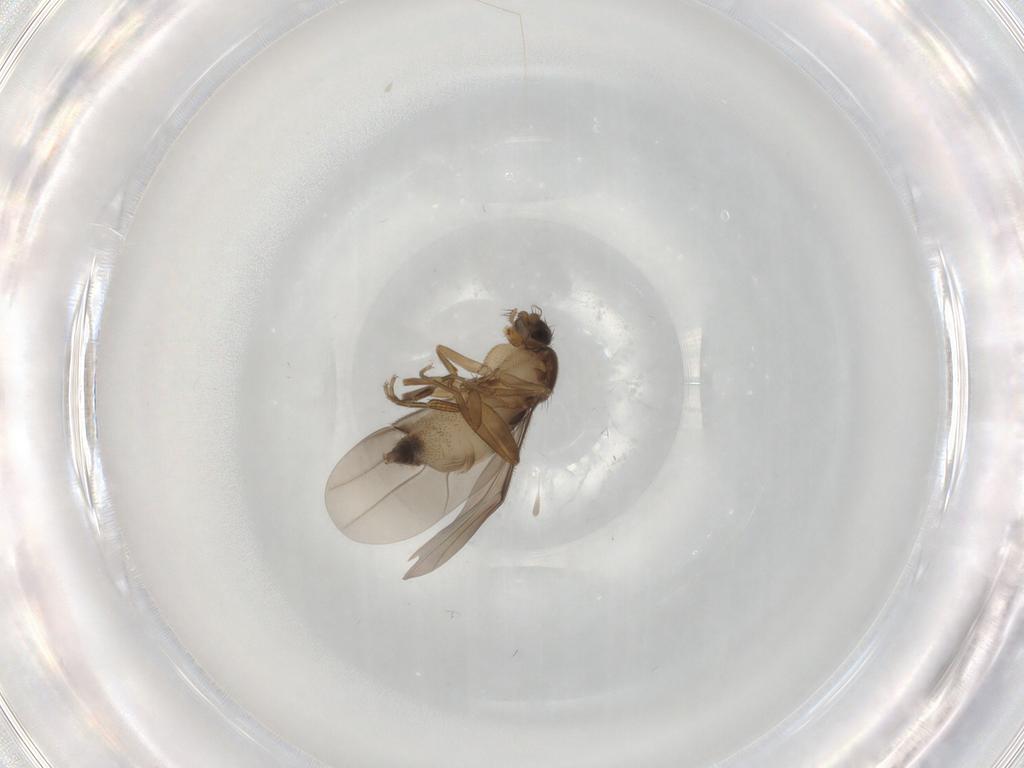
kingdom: Animalia
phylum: Arthropoda
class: Insecta
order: Diptera
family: Phoridae
